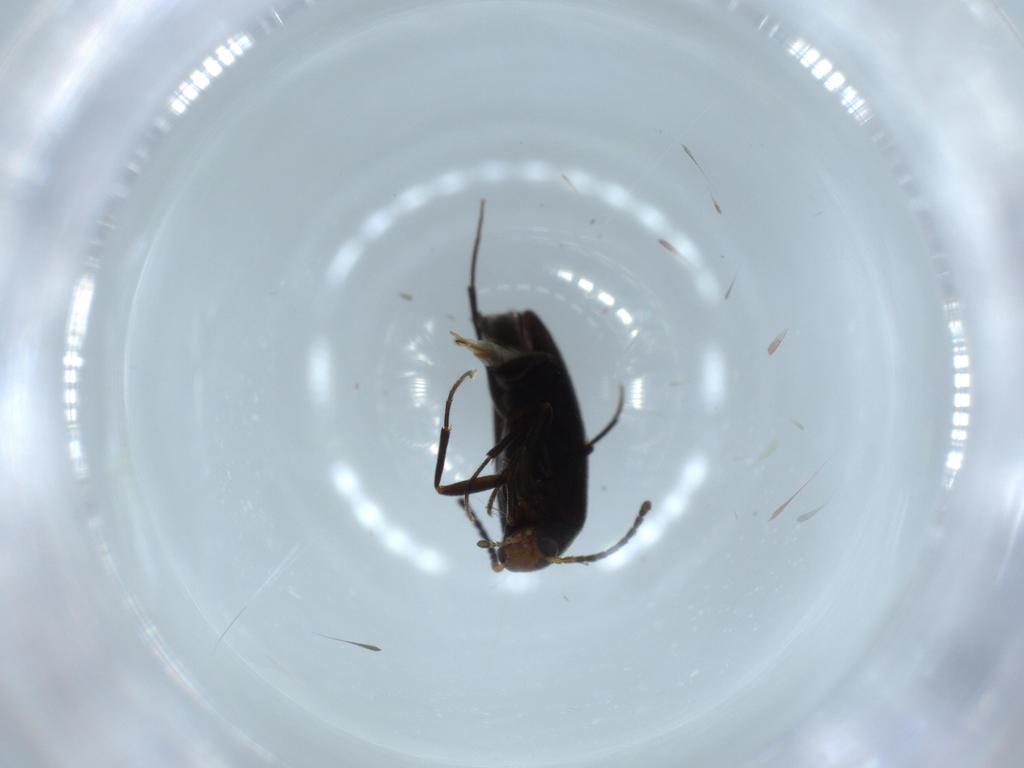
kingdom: Animalia
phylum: Arthropoda
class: Insecta
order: Coleoptera
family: Melandryidae
